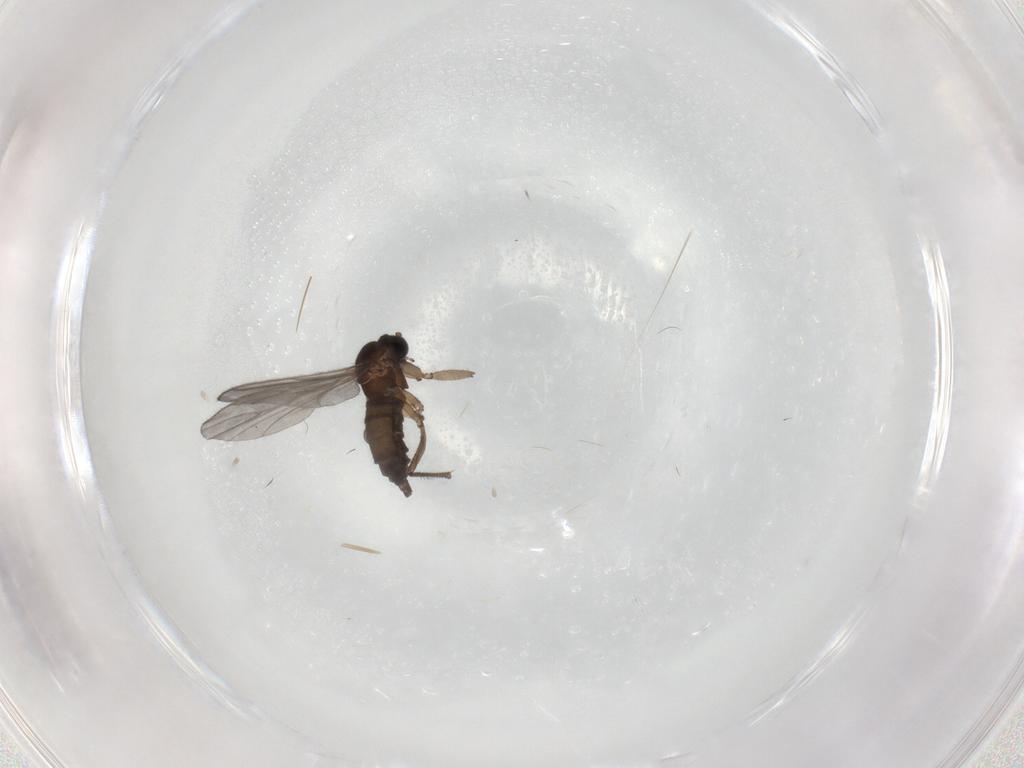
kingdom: Animalia
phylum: Arthropoda
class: Insecta
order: Diptera
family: Sciaridae
